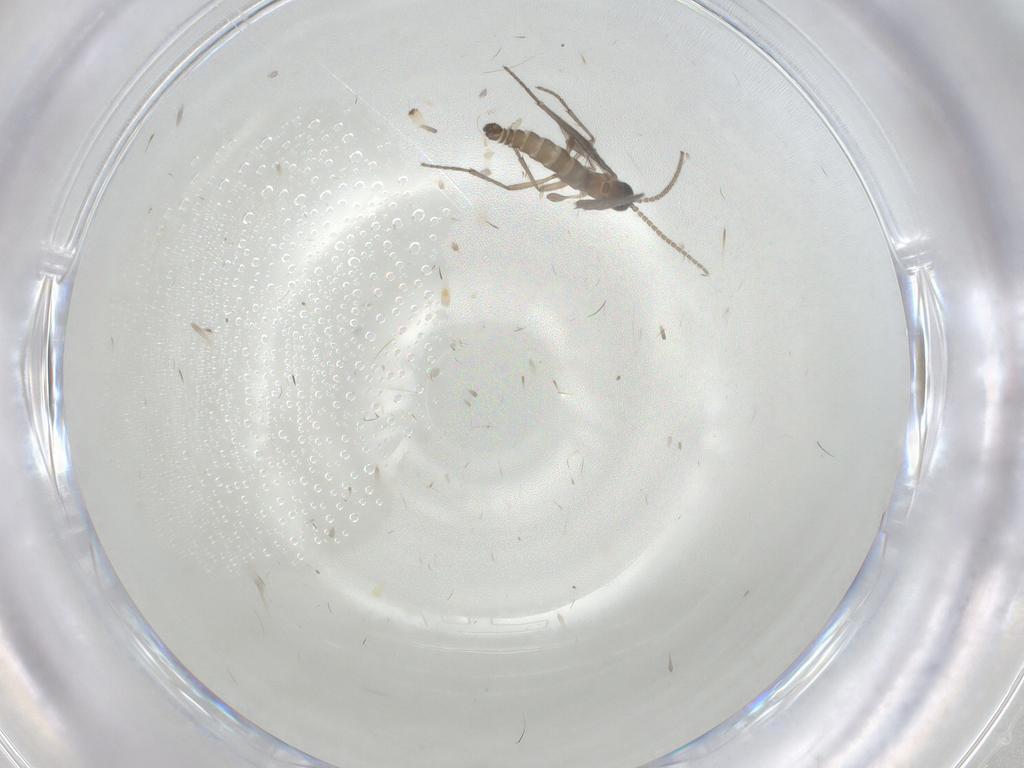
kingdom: Animalia
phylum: Arthropoda
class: Insecta
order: Diptera
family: Sciaridae
